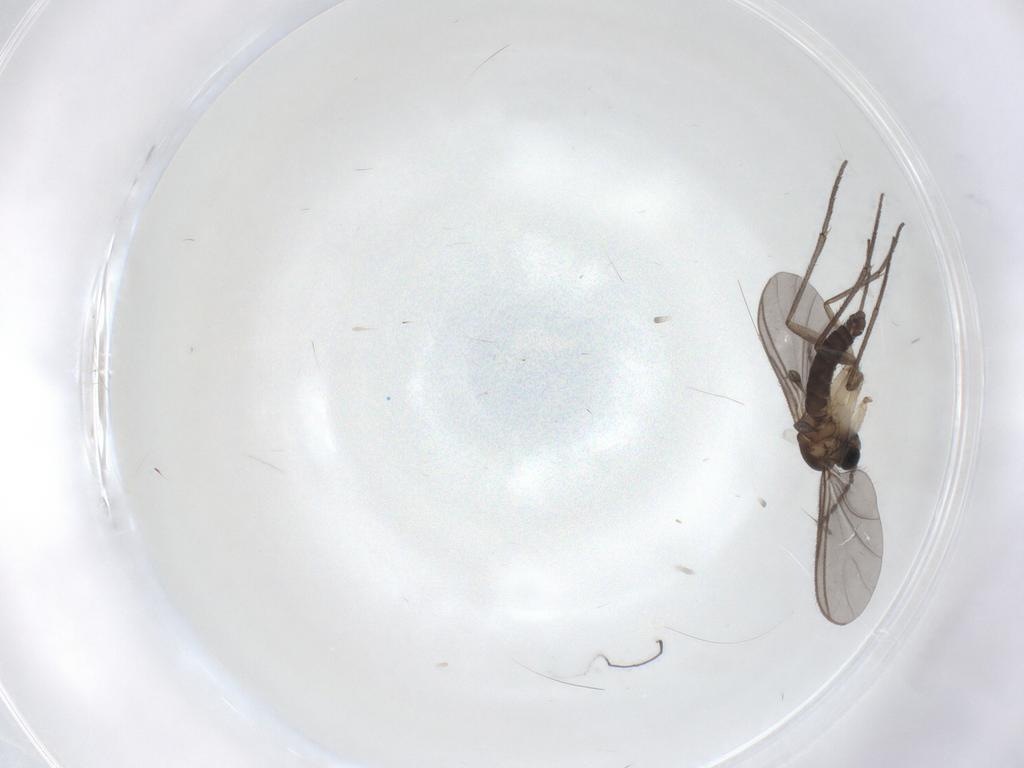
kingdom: Animalia
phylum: Arthropoda
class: Insecta
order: Diptera
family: Sciaridae
